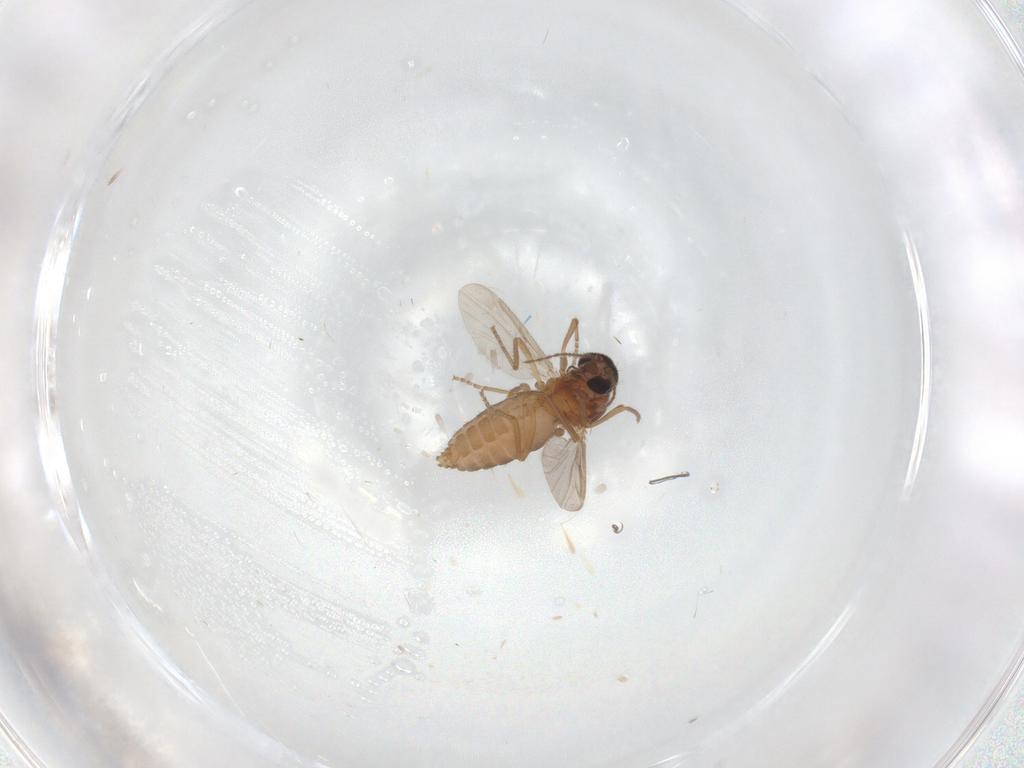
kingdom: Animalia
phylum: Arthropoda
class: Insecta
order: Diptera
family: Ceratopogonidae
